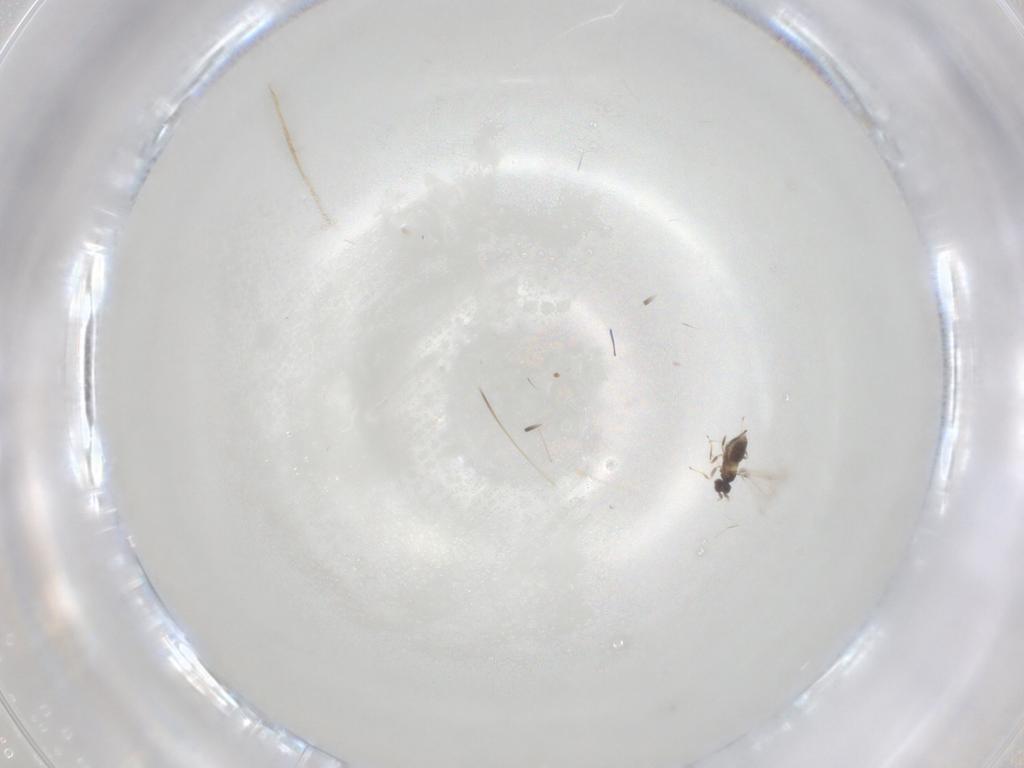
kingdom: Animalia
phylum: Arthropoda
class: Insecta
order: Hymenoptera
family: Mymaridae
